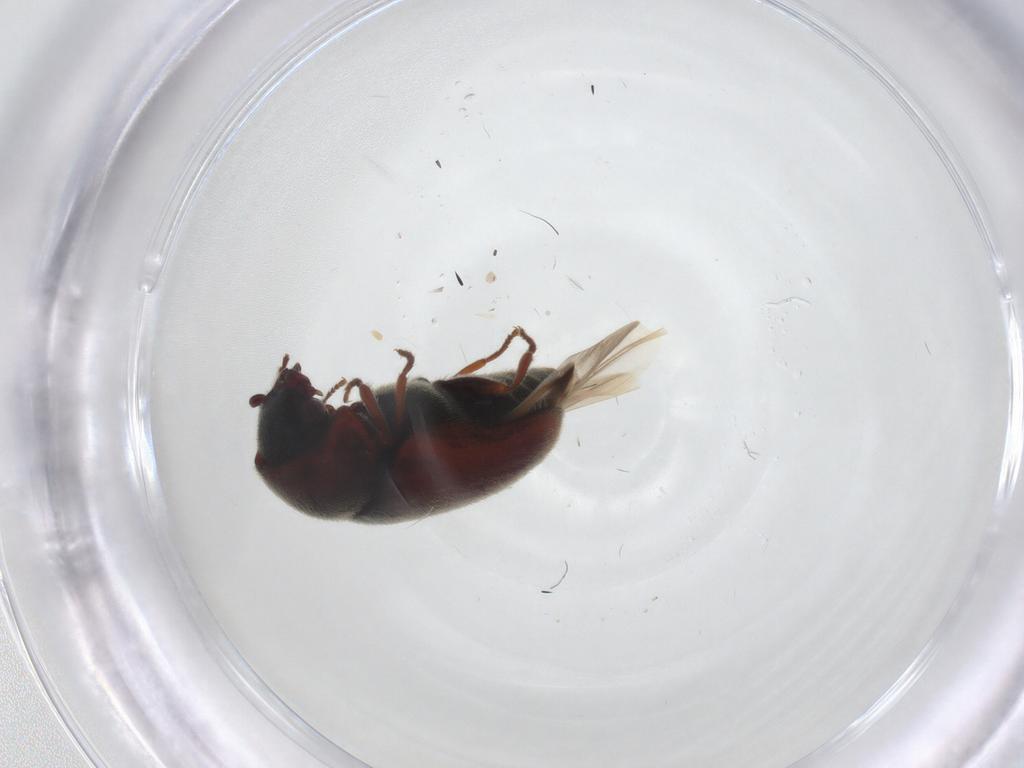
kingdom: Animalia
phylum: Arthropoda
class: Insecta
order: Coleoptera
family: Ptinidae
